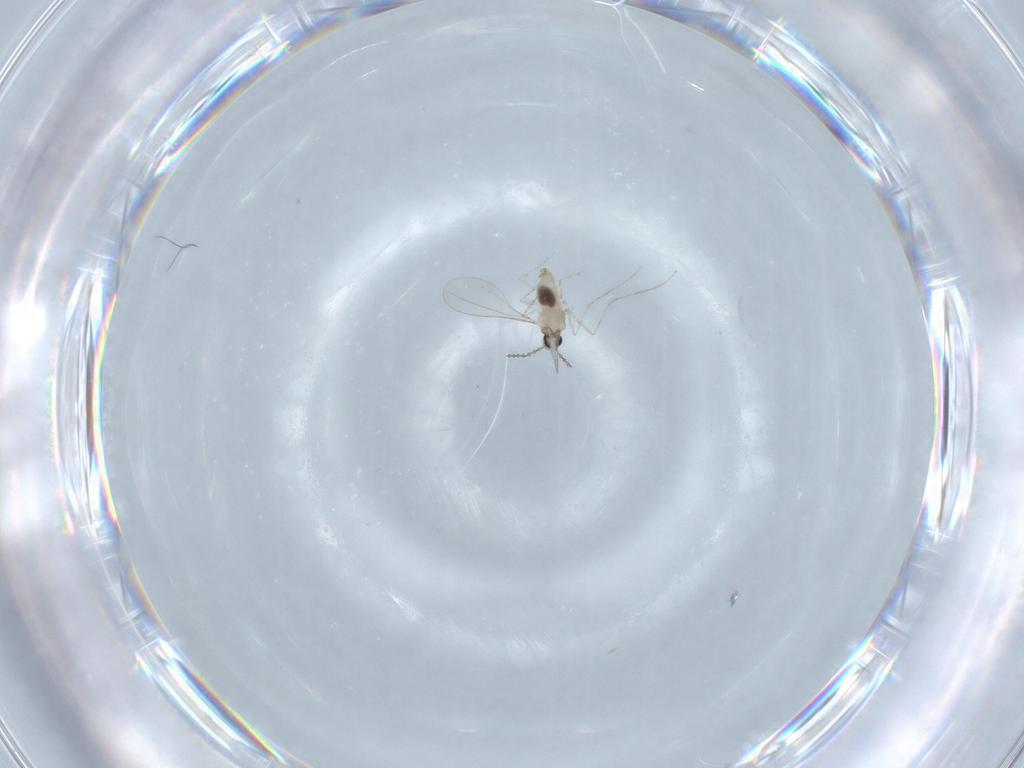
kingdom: Animalia
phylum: Arthropoda
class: Insecta
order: Diptera
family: Cecidomyiidae
